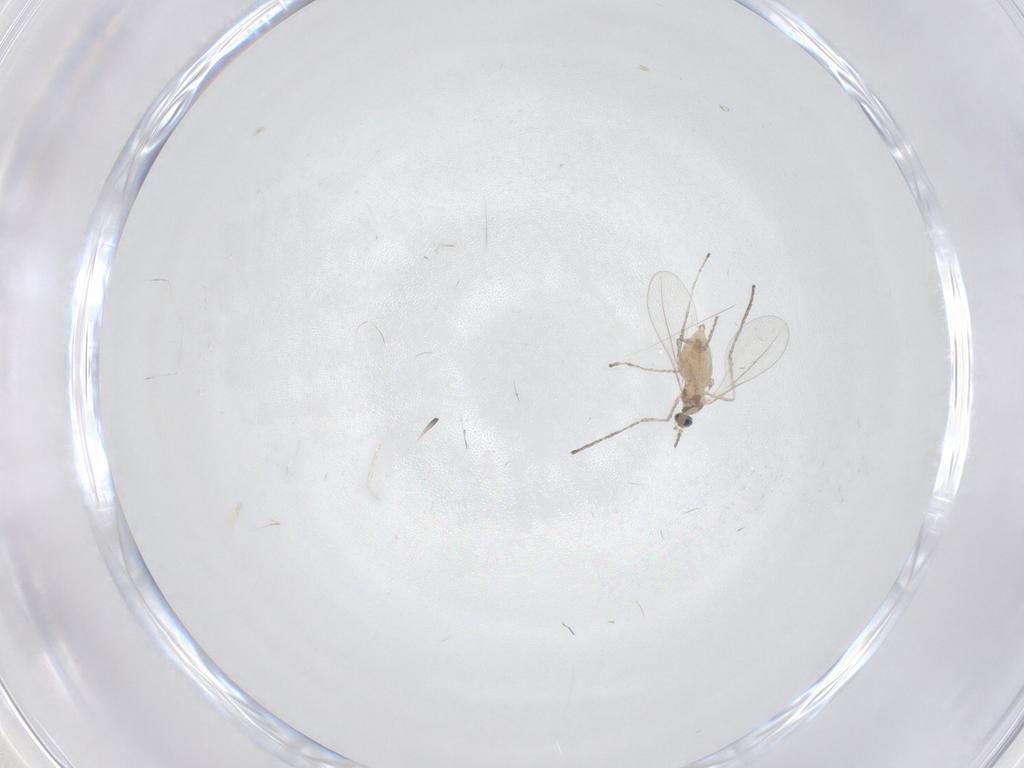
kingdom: Animalia
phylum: Arthropoda
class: Insecta
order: Diptera
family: Cecidomyiidae
